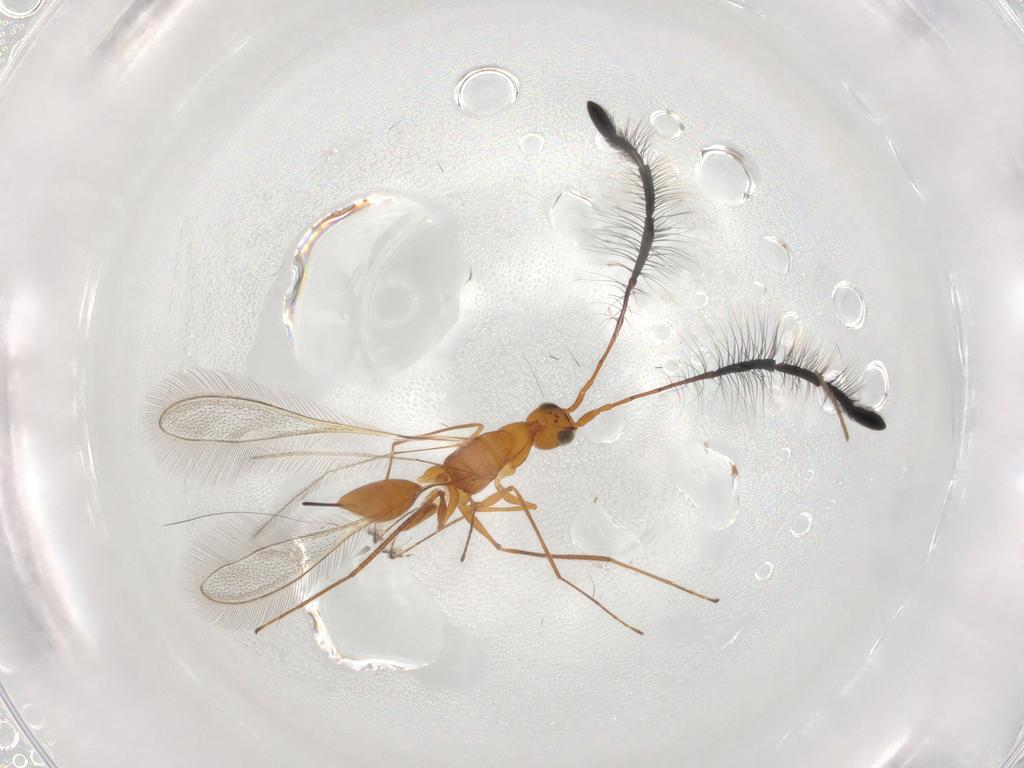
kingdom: Animalia
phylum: Arthropoda
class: Insecta
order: Hymenoptera
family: Mymaridae
